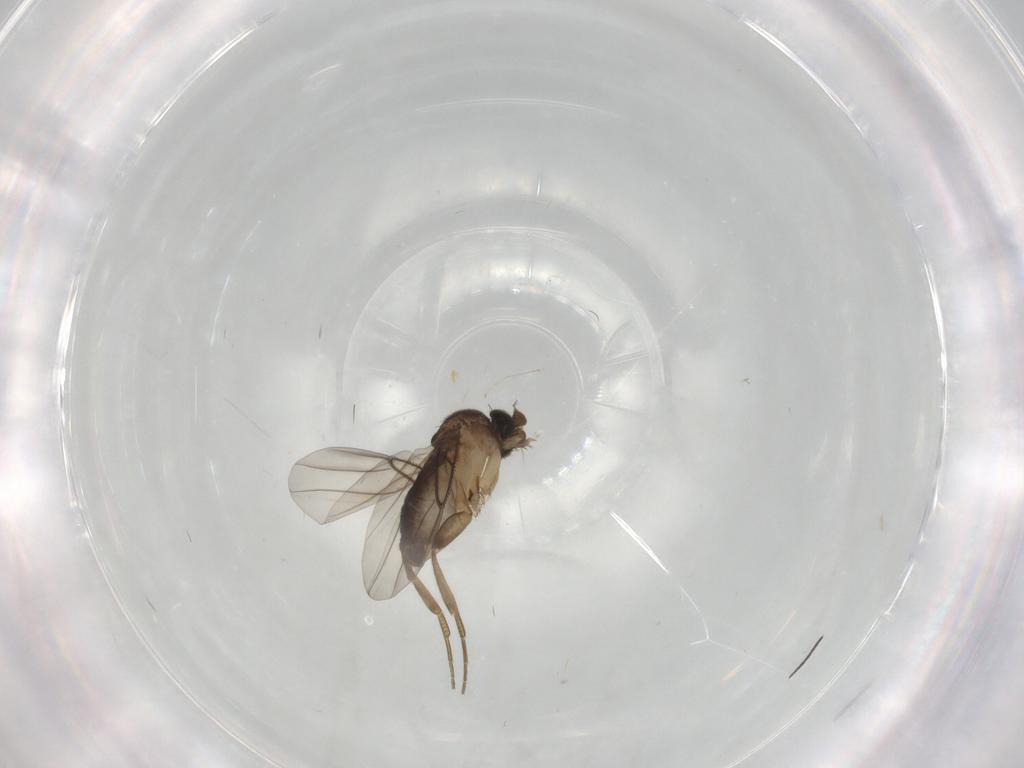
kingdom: Animalia
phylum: Arthropoda
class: Insecta
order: Diptera
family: Phoridae
